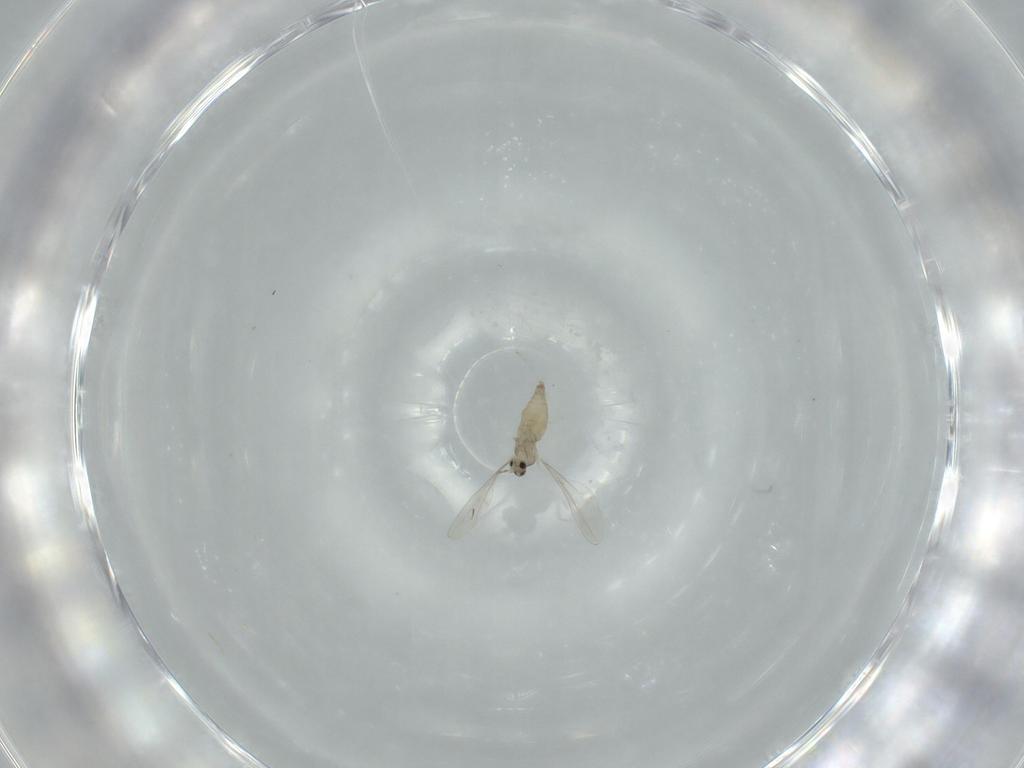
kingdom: Animalia
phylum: Arthropoda
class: Insecta
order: Diptera
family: Cecidomyiidae
